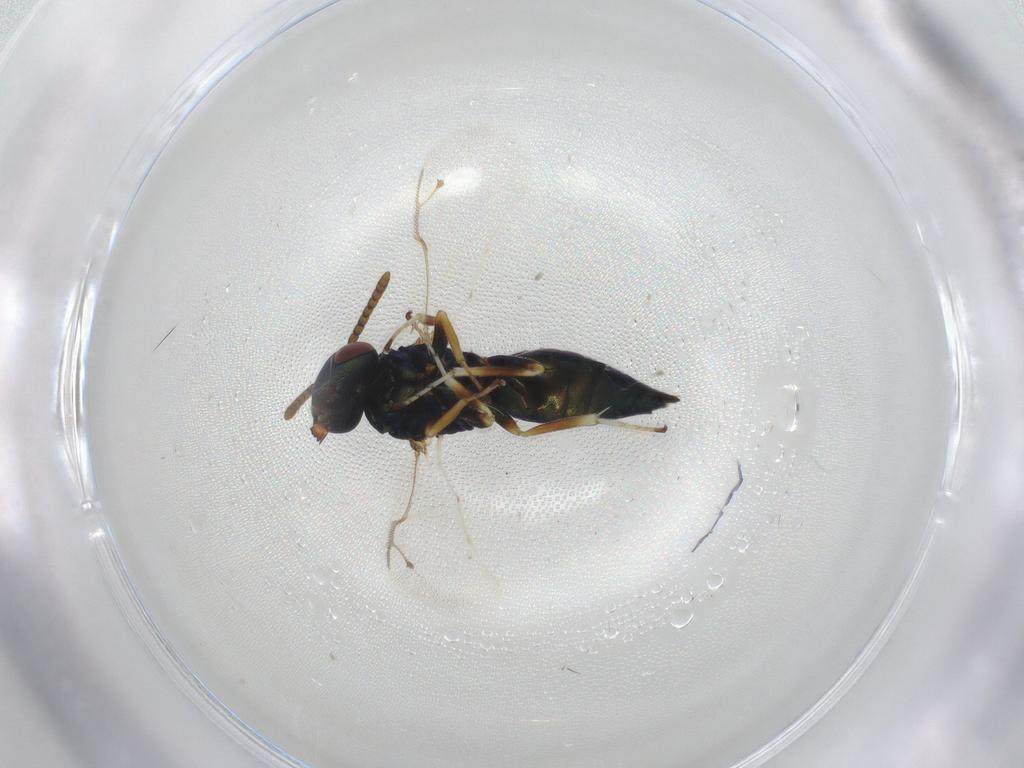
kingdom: Animalia
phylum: Arthropoda
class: Insecta
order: Hymenoptera
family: Pteromalidae
